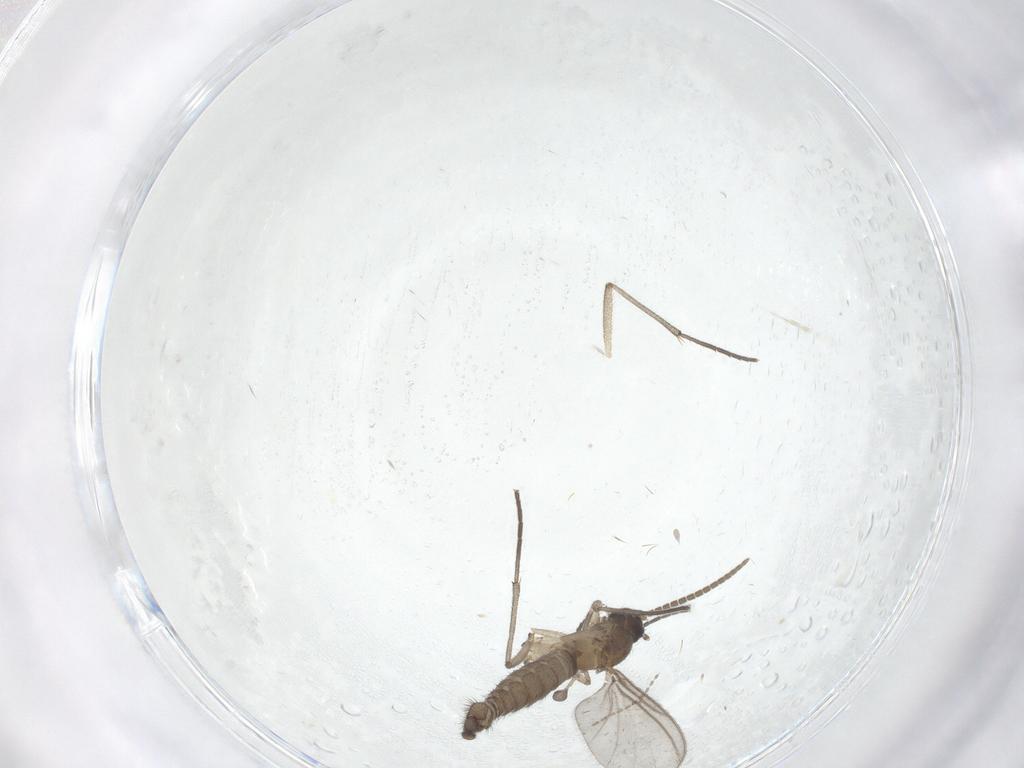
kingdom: Animalia
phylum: Arthropoda
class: Insecta
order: Diptera
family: Cecidomyiidae
